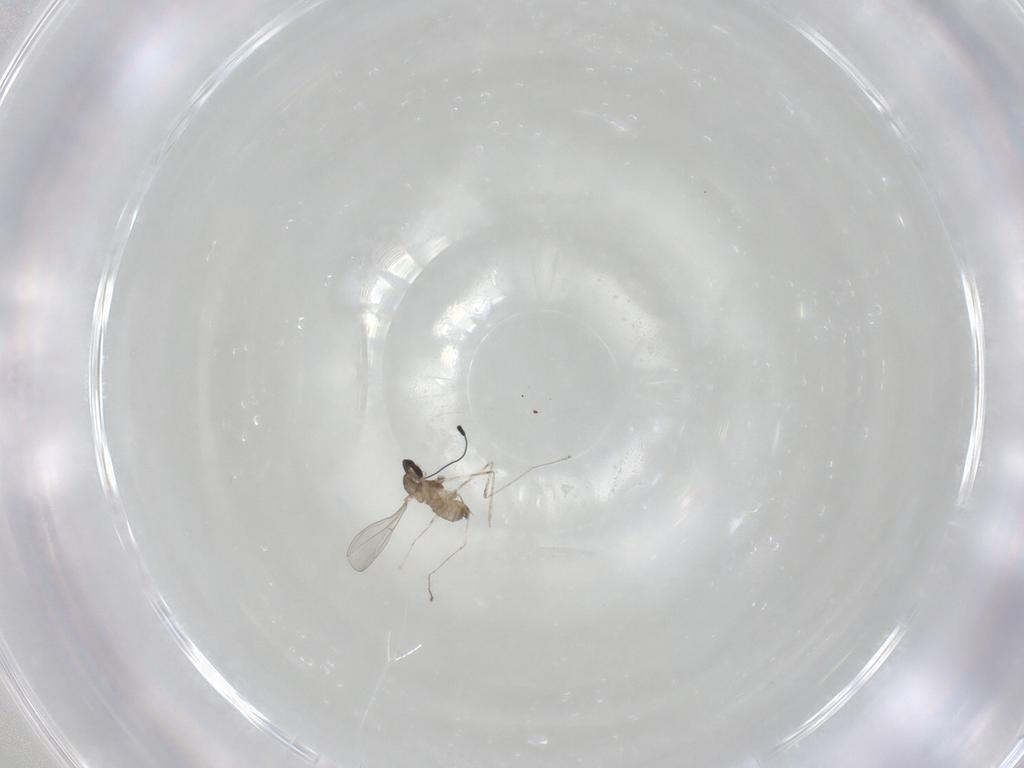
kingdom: Animalia
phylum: Arthropoda
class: Insecta
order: Diptera
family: Cecidomyiidae
